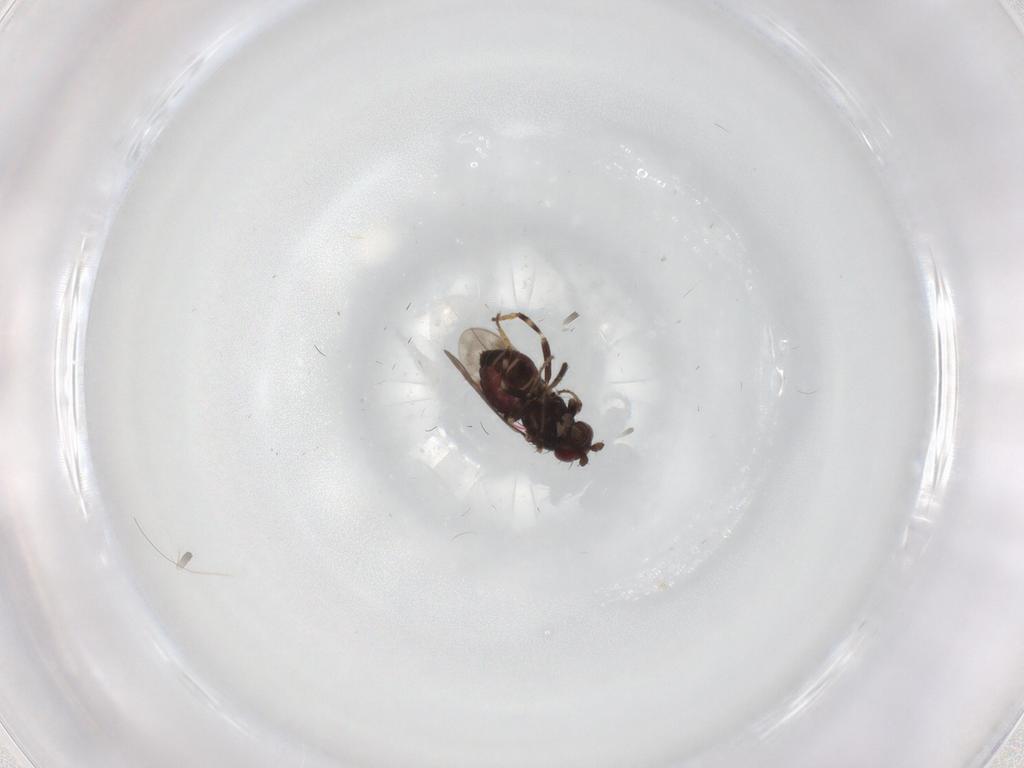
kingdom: Animalia
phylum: Arthropoda
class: Insecta
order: Diptera
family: Sphaeroceridae
